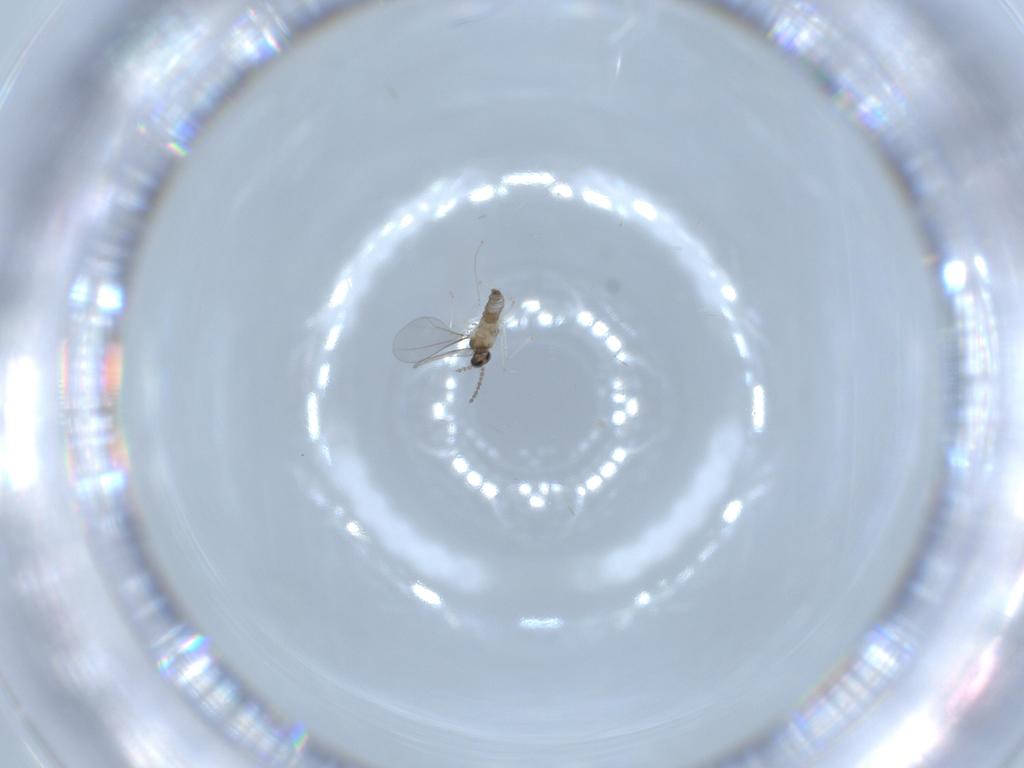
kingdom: Animalia
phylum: Arthropoda
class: Insecta
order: Diptera
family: Cecidomyiidae
